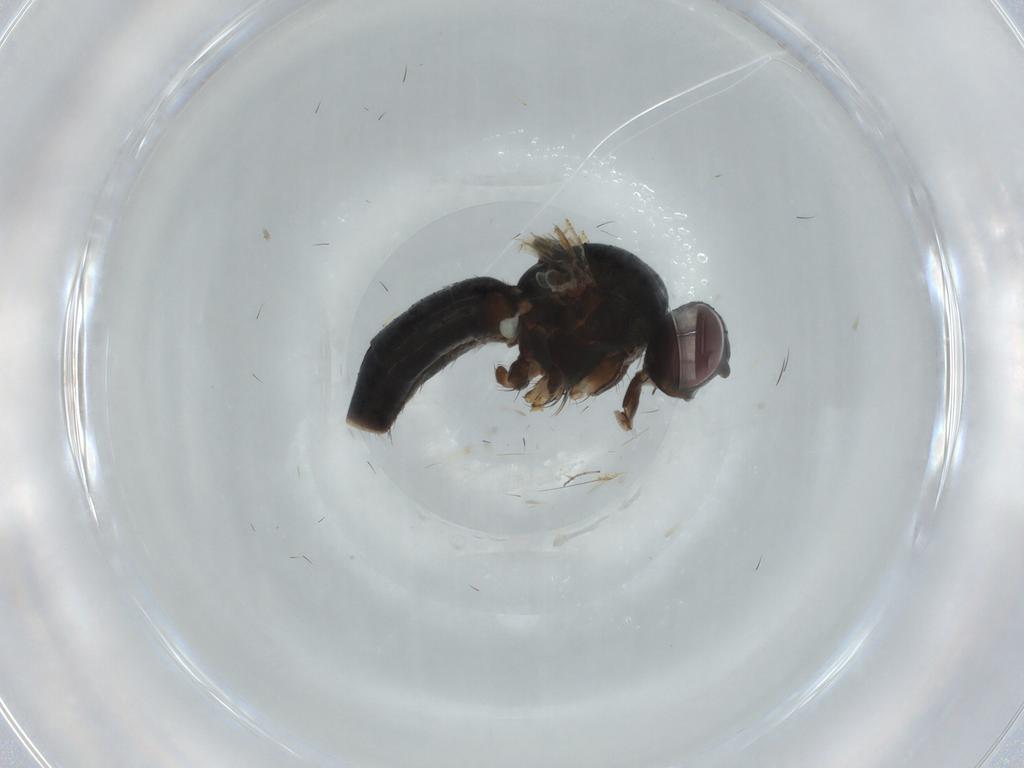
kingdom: Animalia
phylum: Arthropoda
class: Insecta
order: Diptera
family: Muscidae
